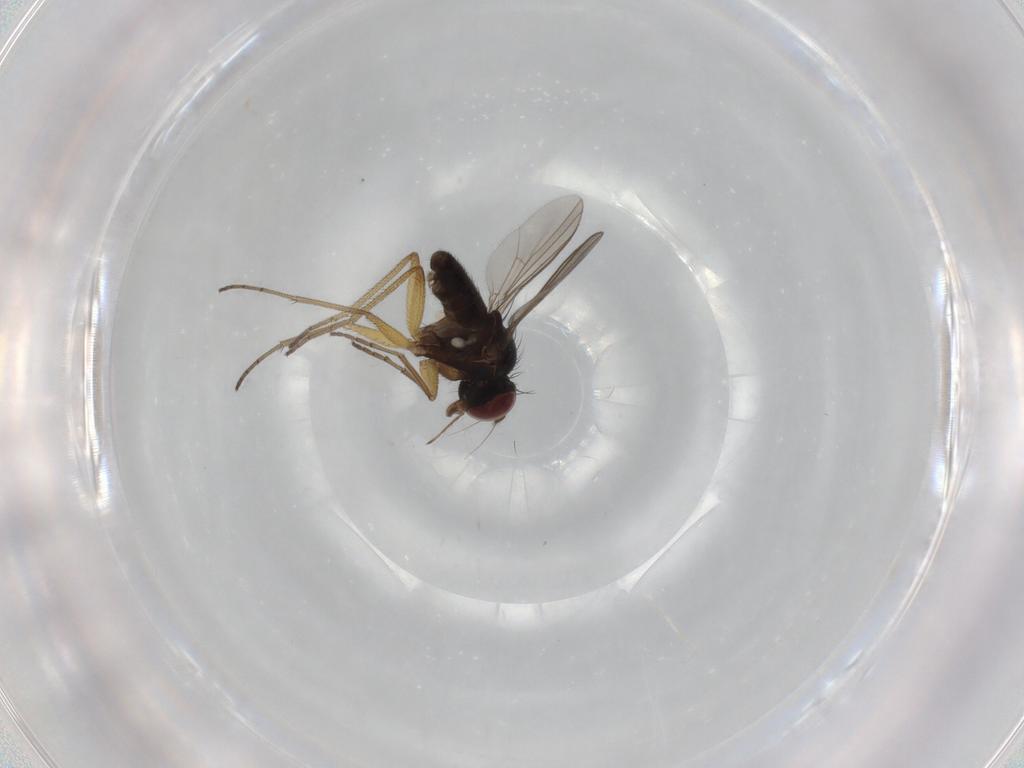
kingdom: Animalia
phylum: Arthropoda
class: Insecta
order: Diptera
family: Dolichopodidae
